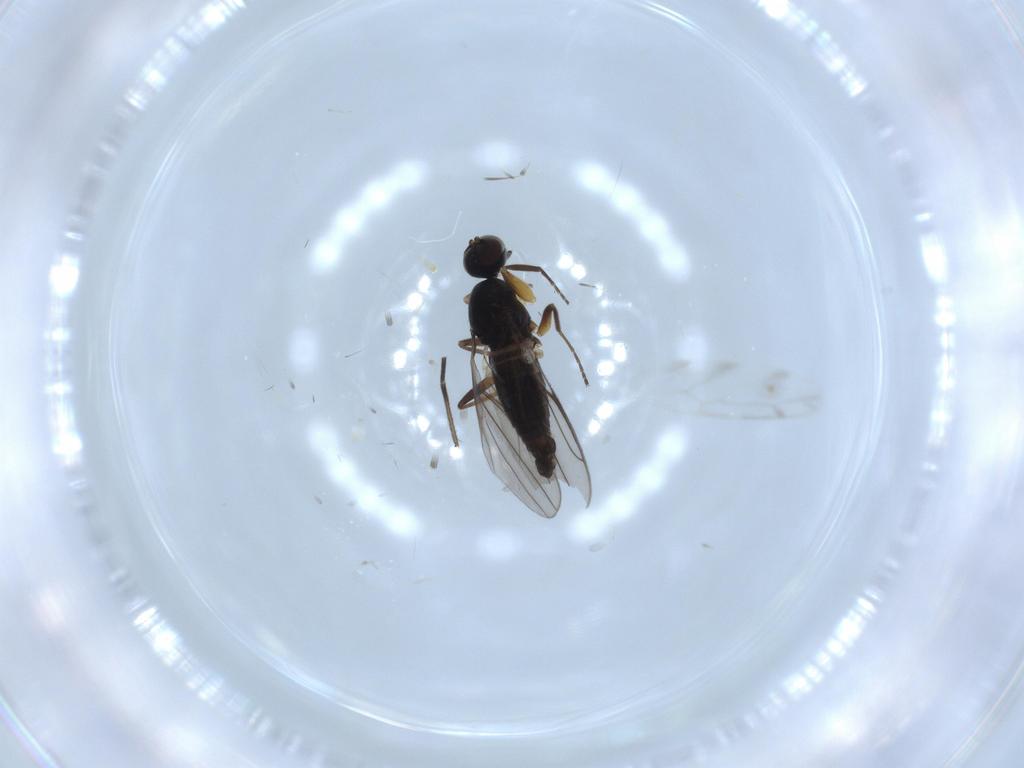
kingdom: Animalia
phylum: Arthropoda
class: Insecta
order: Diptera
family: Hybotidae
